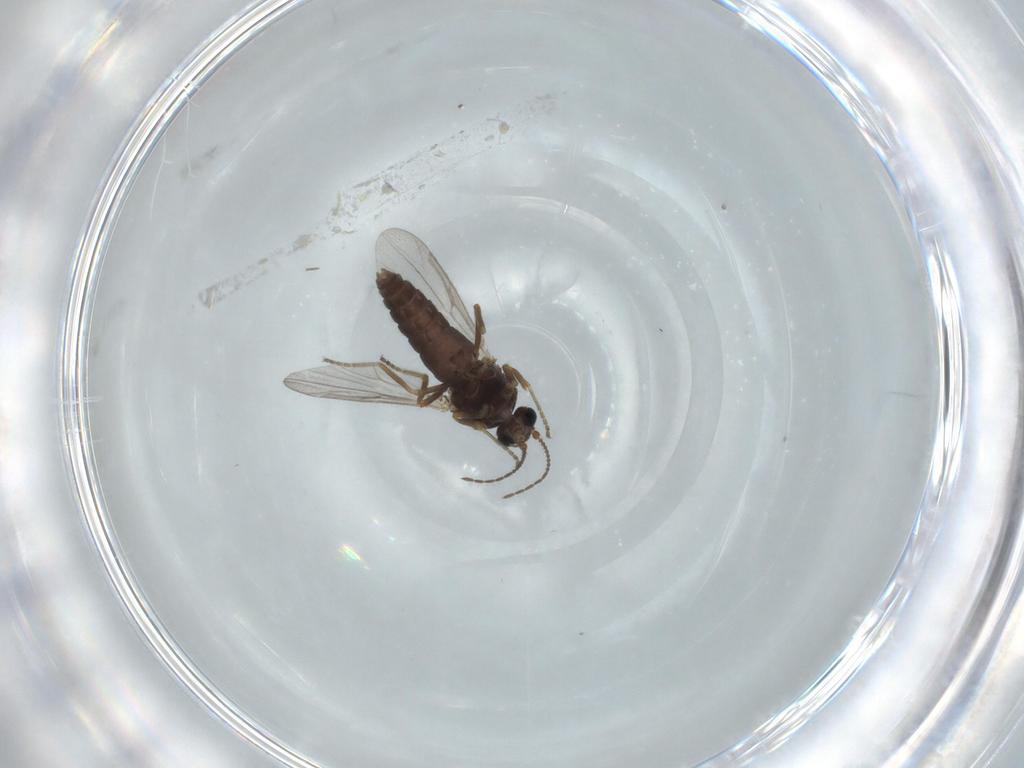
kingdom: Animalia
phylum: Arthropoda
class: Insecta
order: Diptera
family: Ceratopogonidae
